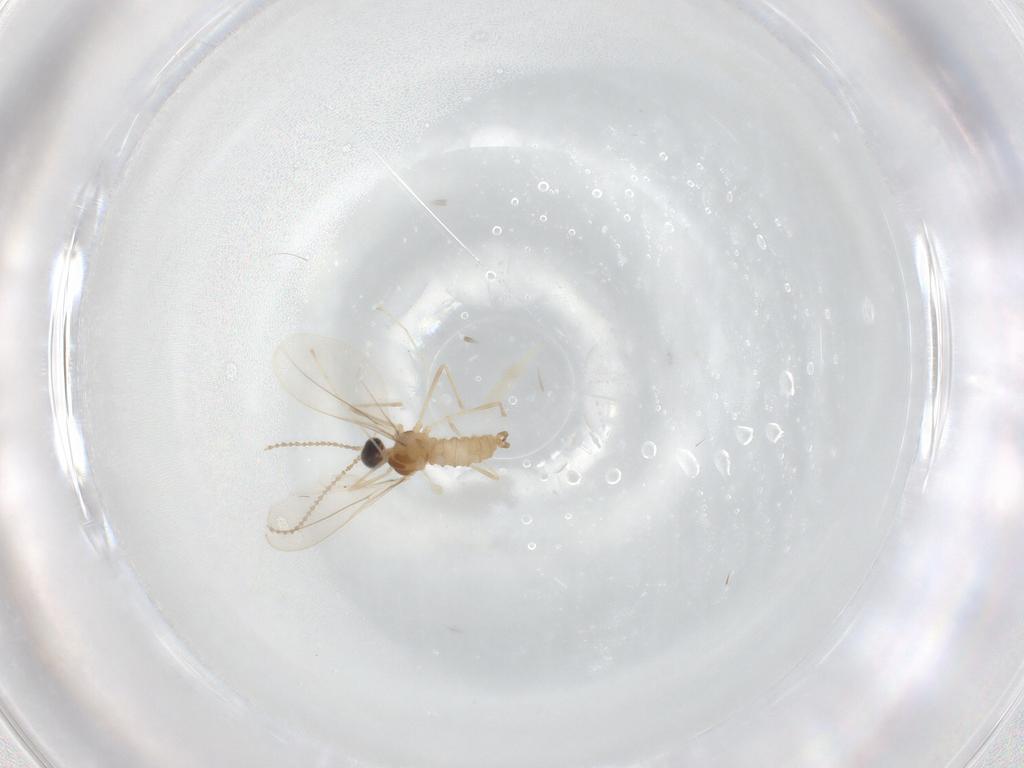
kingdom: Animalia
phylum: Arthropoda
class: Insecta
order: Diptera
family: Cecidomyiidae
